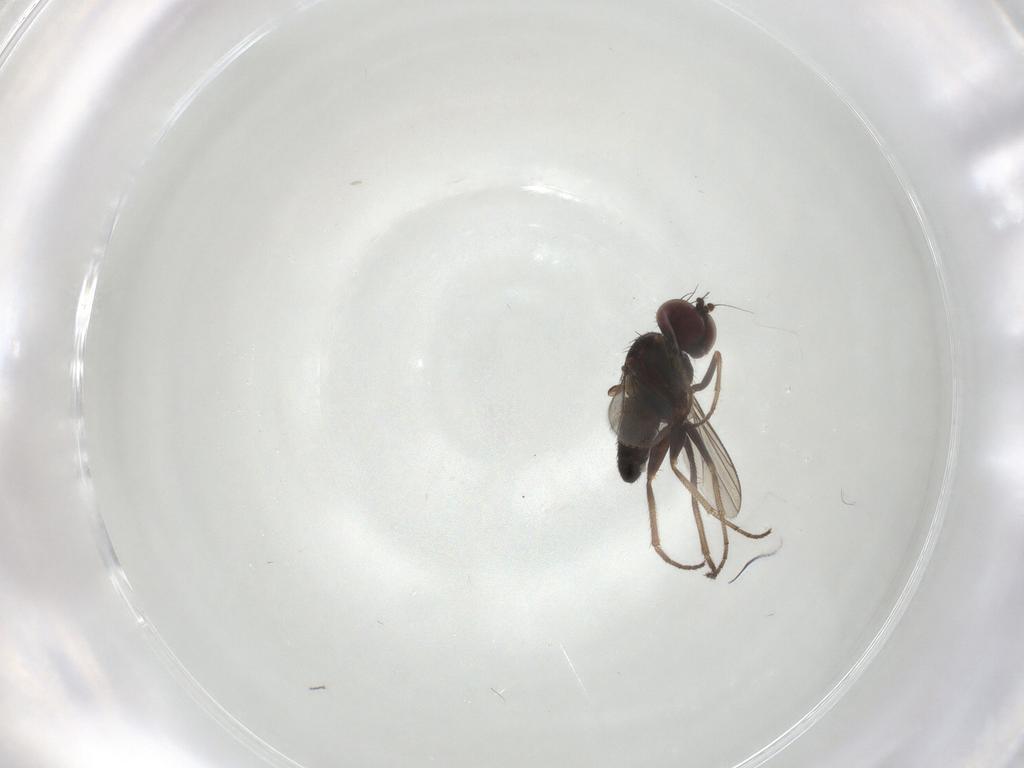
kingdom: Animalia
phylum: Arthropoda
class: Insecta
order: Diptera
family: Dolichopodidae
